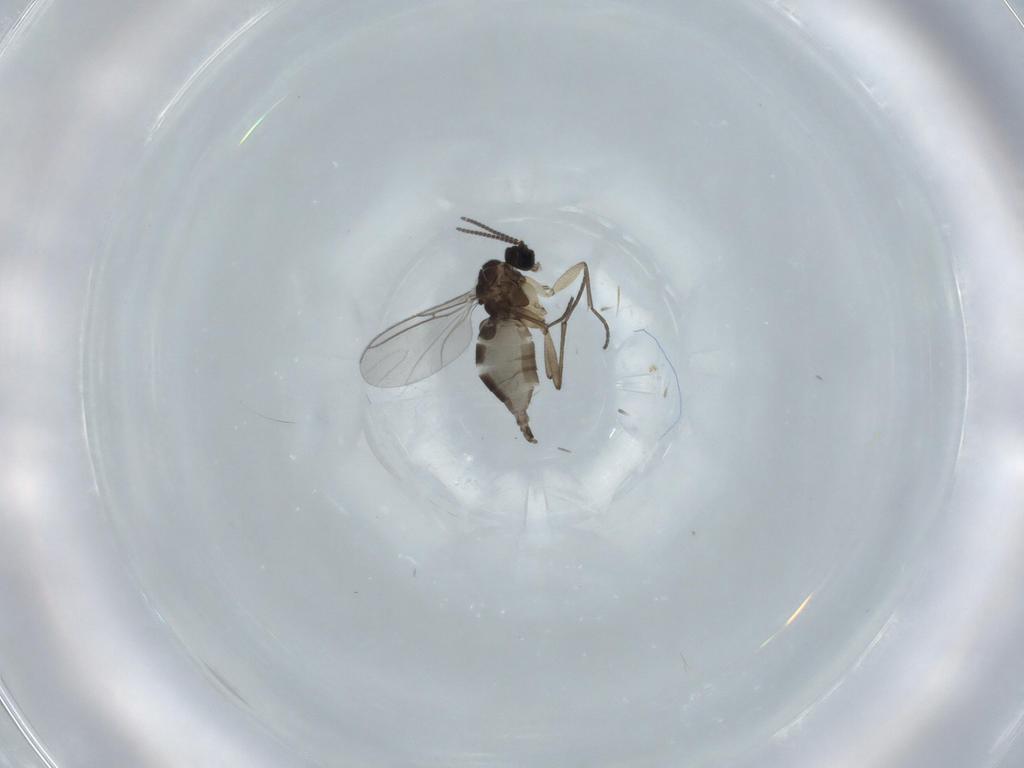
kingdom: Animalia
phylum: Arthropoda
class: Insecta
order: Diptera
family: Sciaridae
